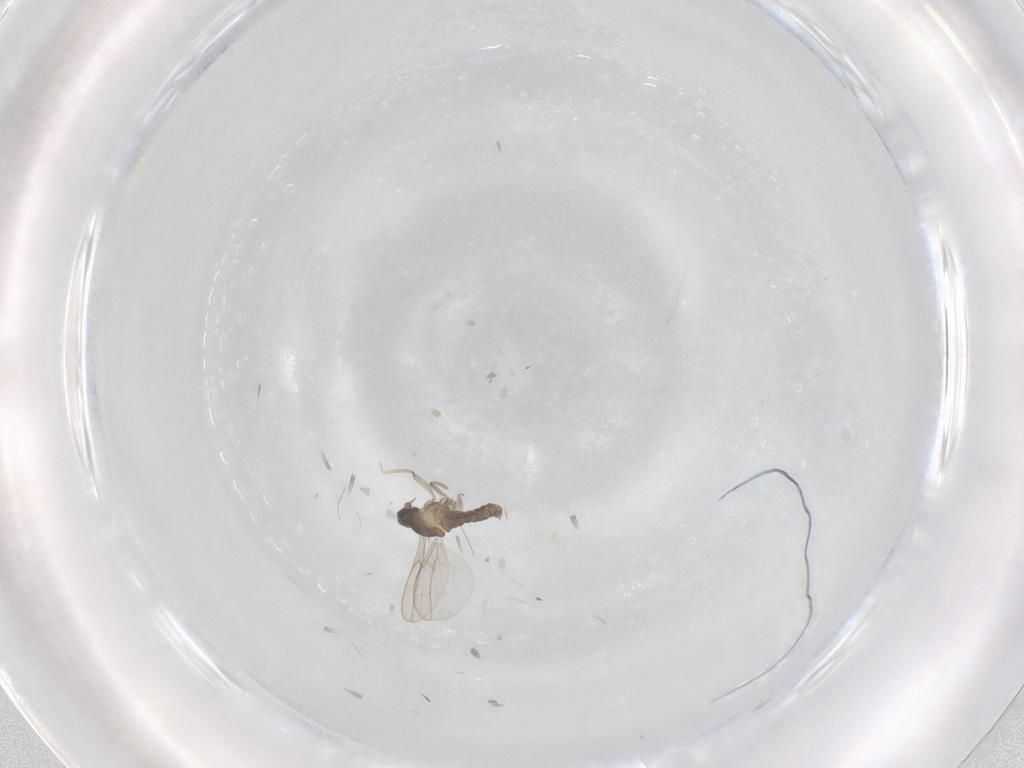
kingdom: Animalia
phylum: Arthropoda
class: Insecta
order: Diptera
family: Cecidomyiidae
